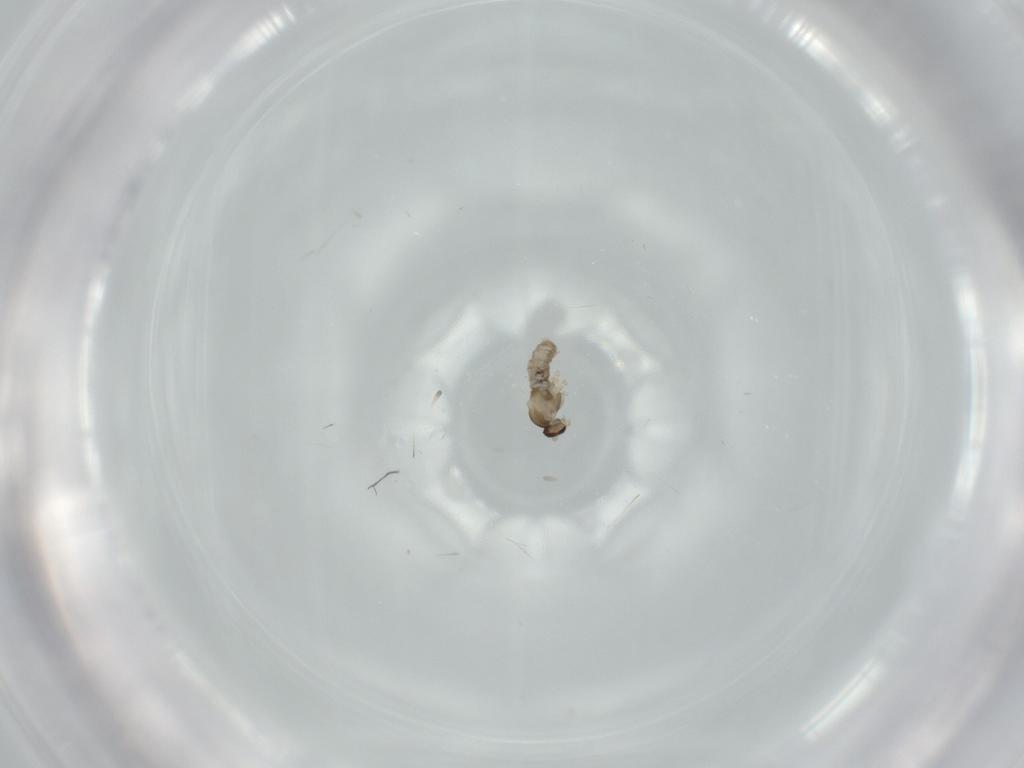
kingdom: Animalia
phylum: Arthropoda
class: Insecta
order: Diptera
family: Cecidomyiidae
